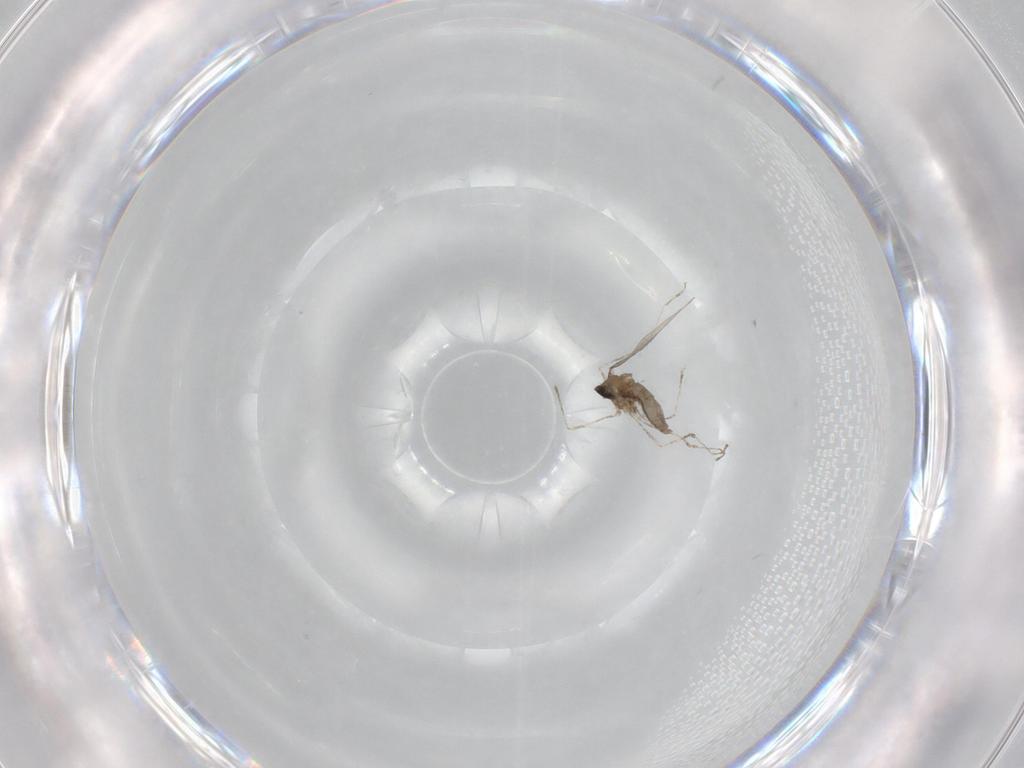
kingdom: Animalia
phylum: Arthropoda
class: Insecta
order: Diptera
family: Cecidomyiidae
